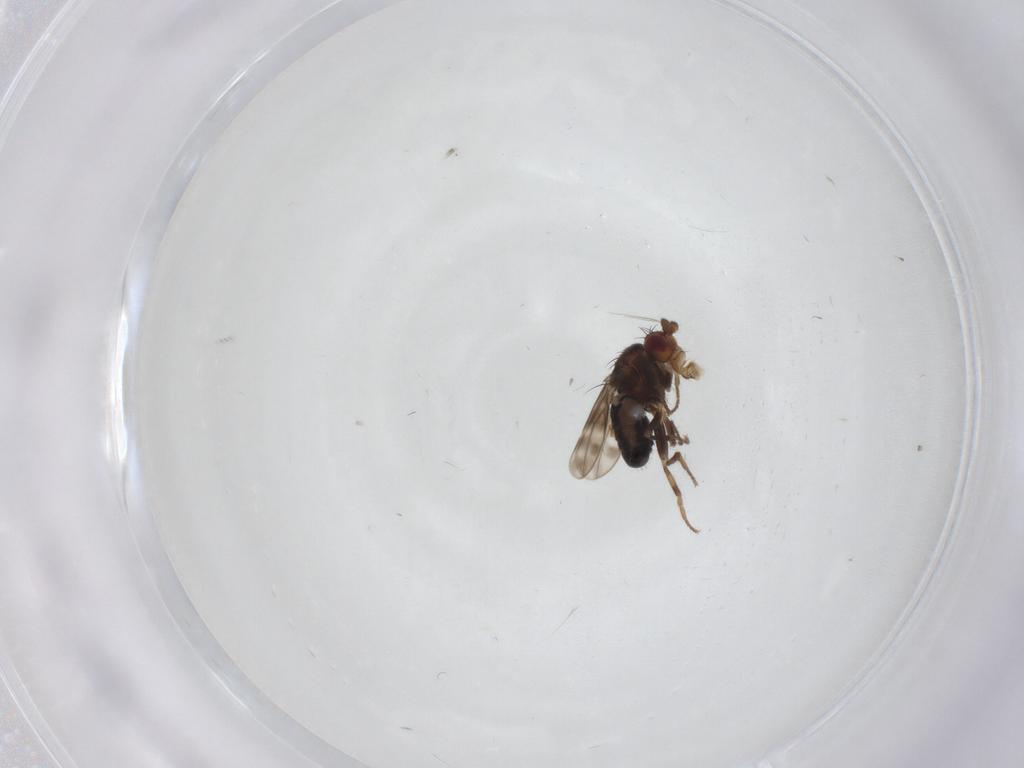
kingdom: Animalia
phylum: Arthropoda
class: Insecta
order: Diptera
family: Sphaeroceridae
